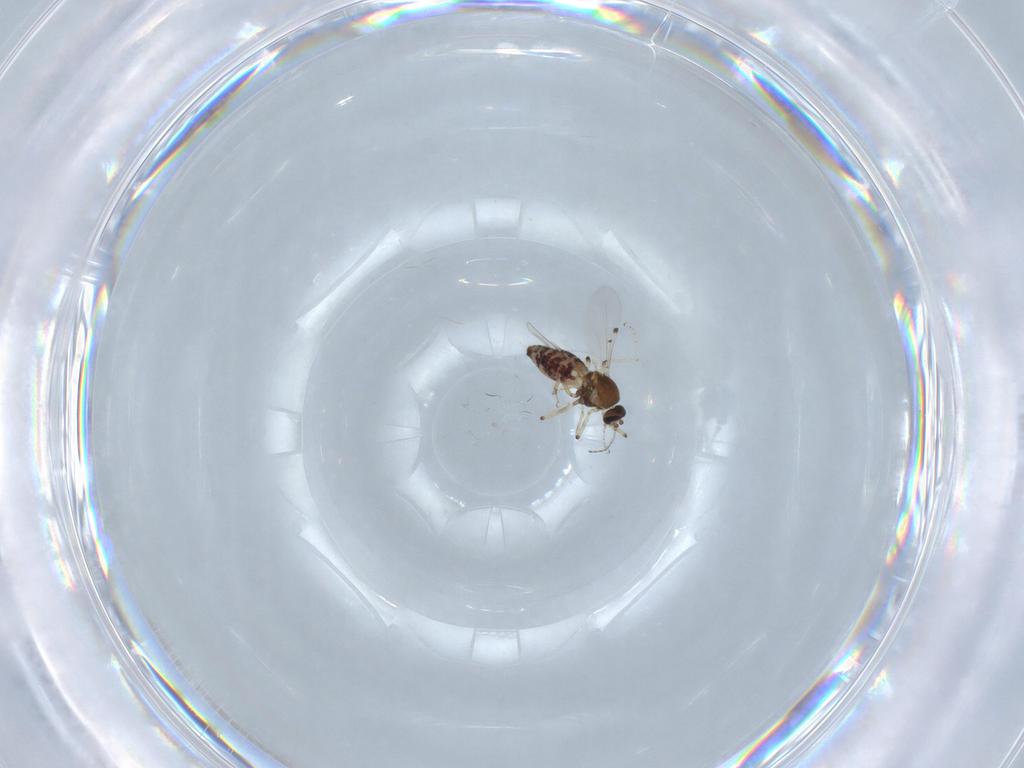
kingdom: Animalia
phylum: Arthropoda
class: Insecta
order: Diptera
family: Ceratopogonidae
